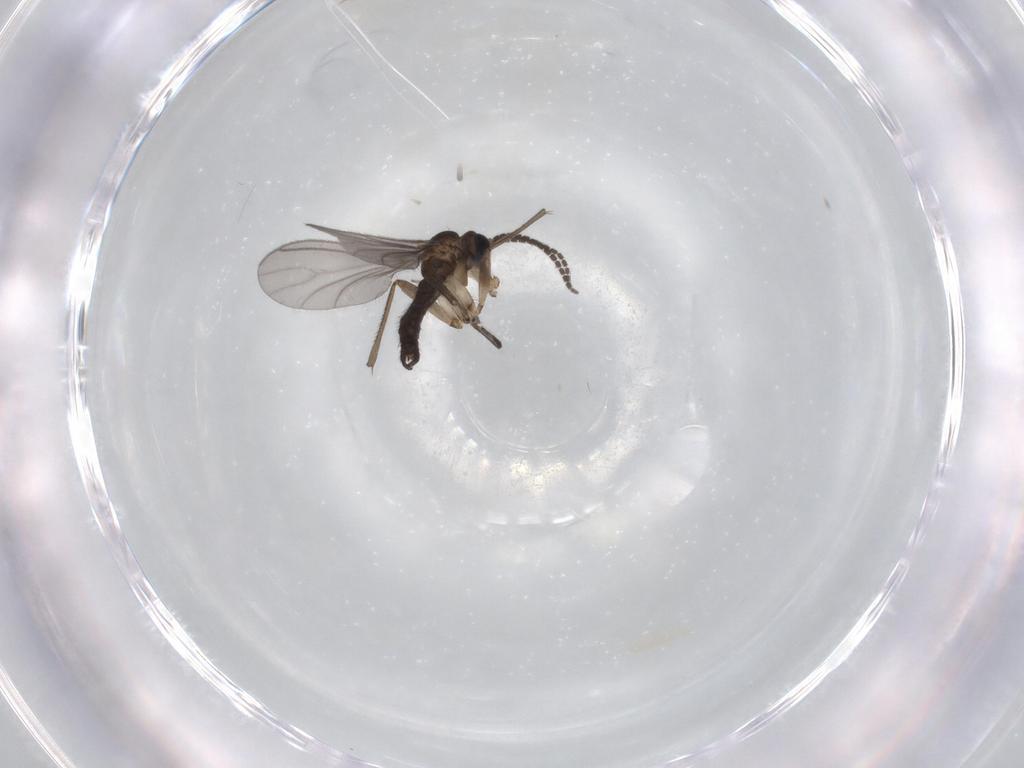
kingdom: Animalia
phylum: Arthropoda
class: Insecta
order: Diptera
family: Sciaridae
